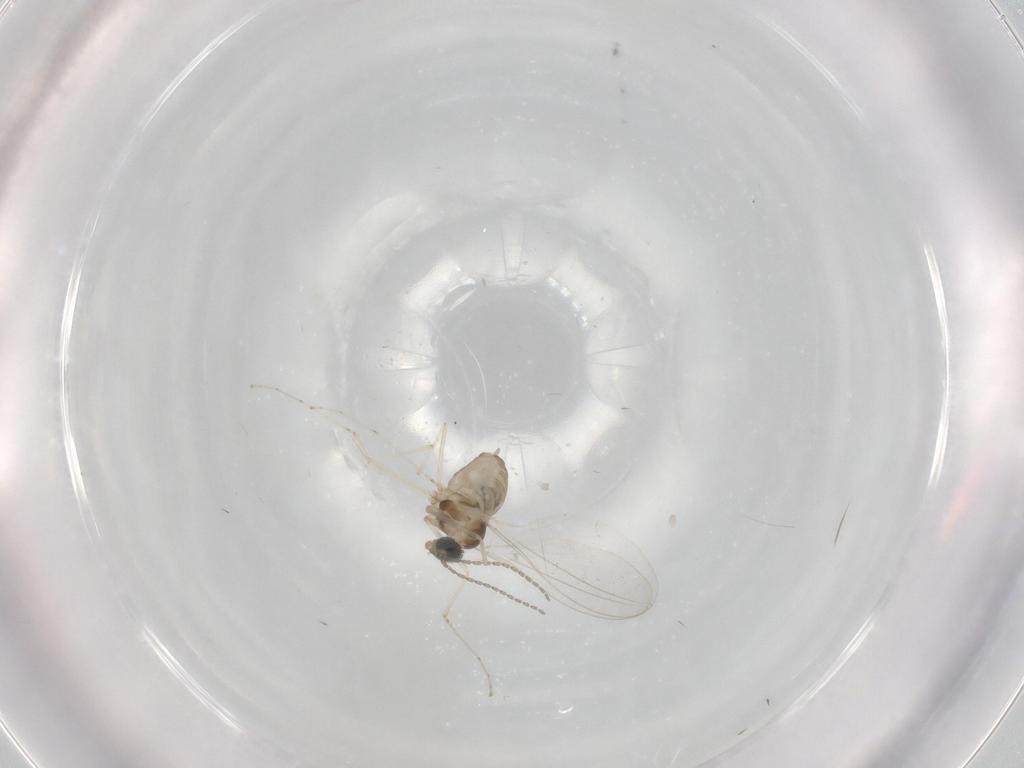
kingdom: Animalia
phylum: Arthropoda
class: Insecta
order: Diptera
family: Cecidomyiidae
